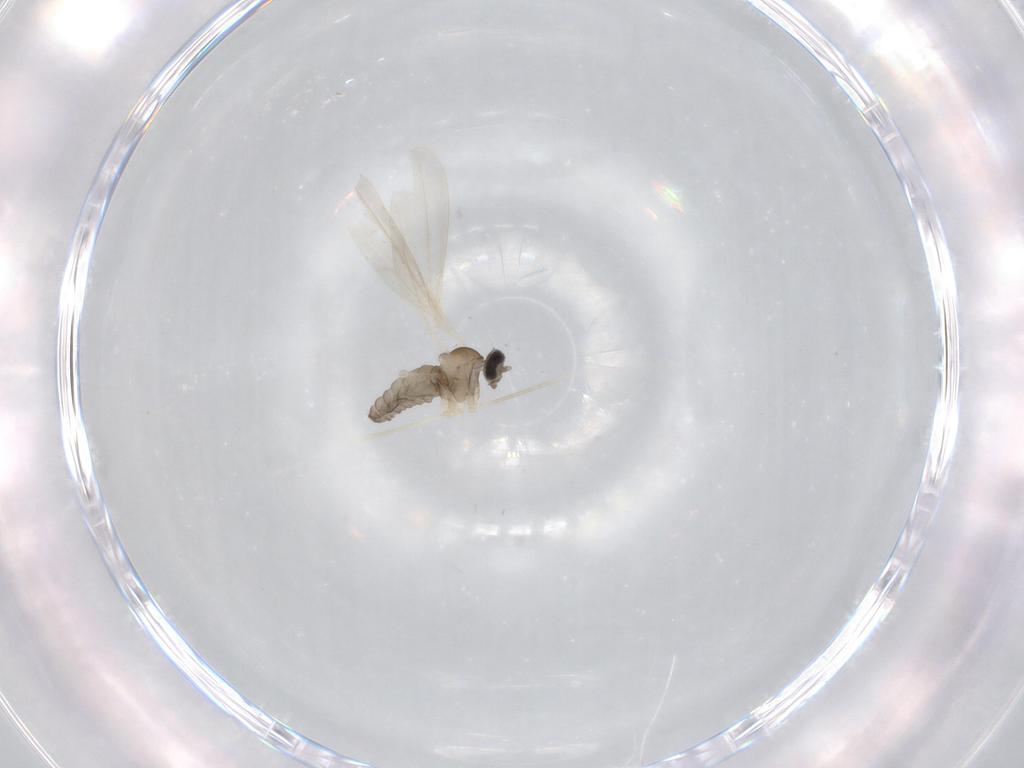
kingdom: Animalia
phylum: Arthropoda
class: Insecta
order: Diptera
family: Cecidomyiidae
